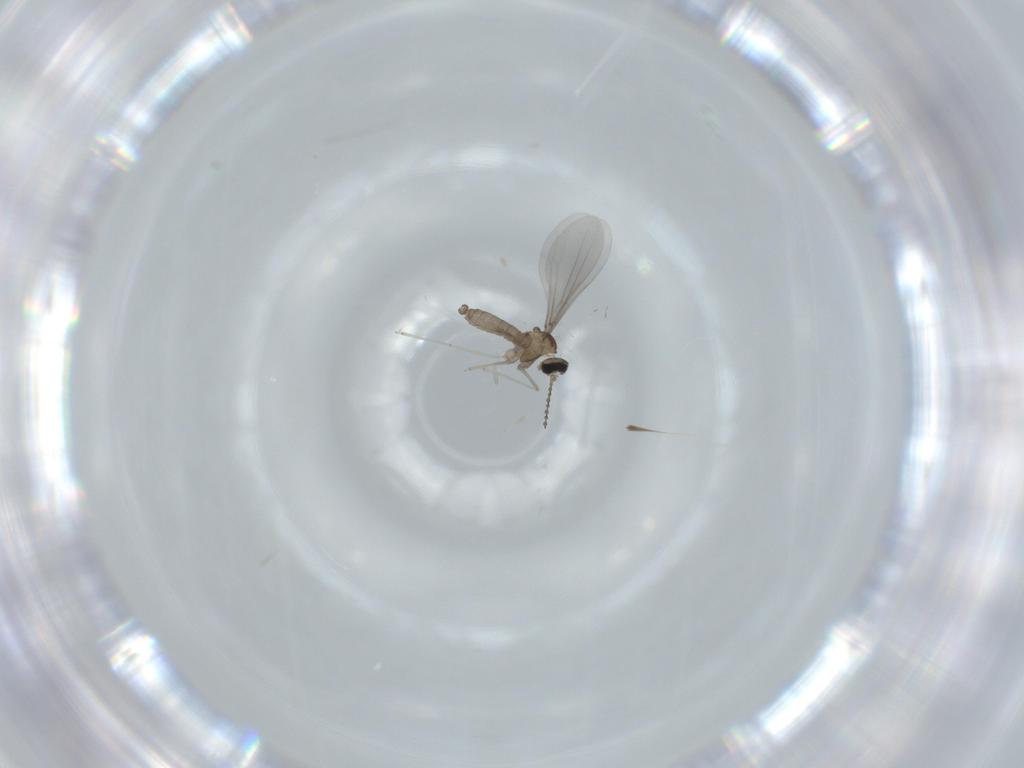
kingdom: Animalia
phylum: Arthropoda
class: Insecta
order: Diptera
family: Cecidomyiidae
